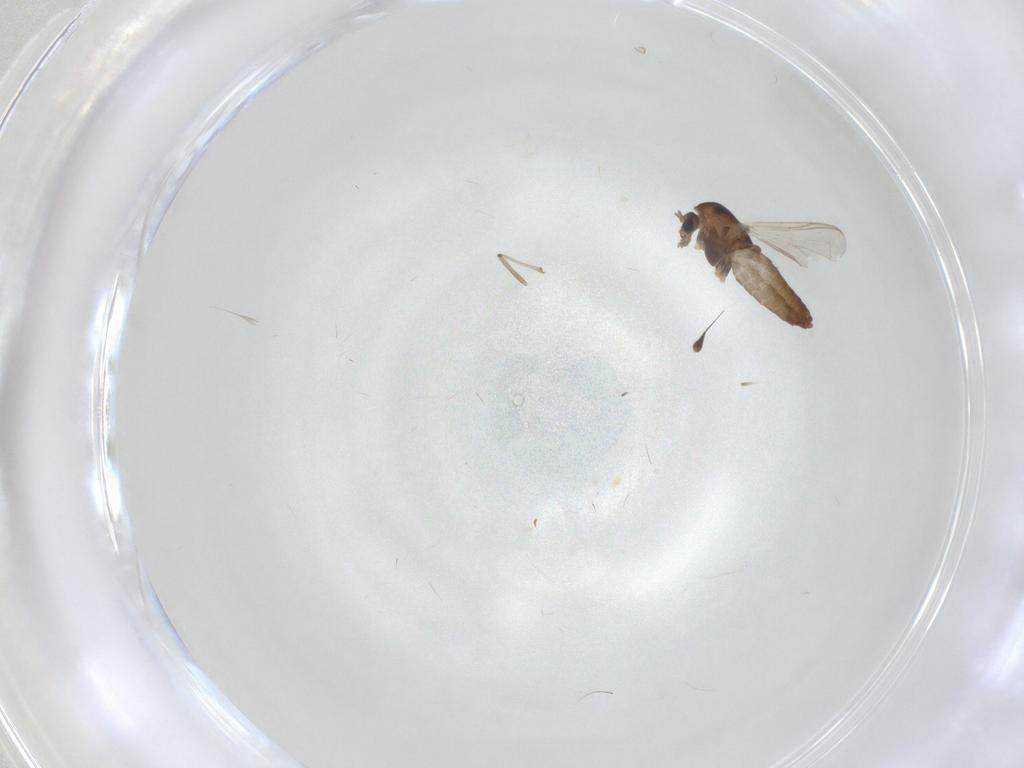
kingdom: Animalia
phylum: Arthropoda
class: Insecta
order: Diptera
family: Chironomidae
